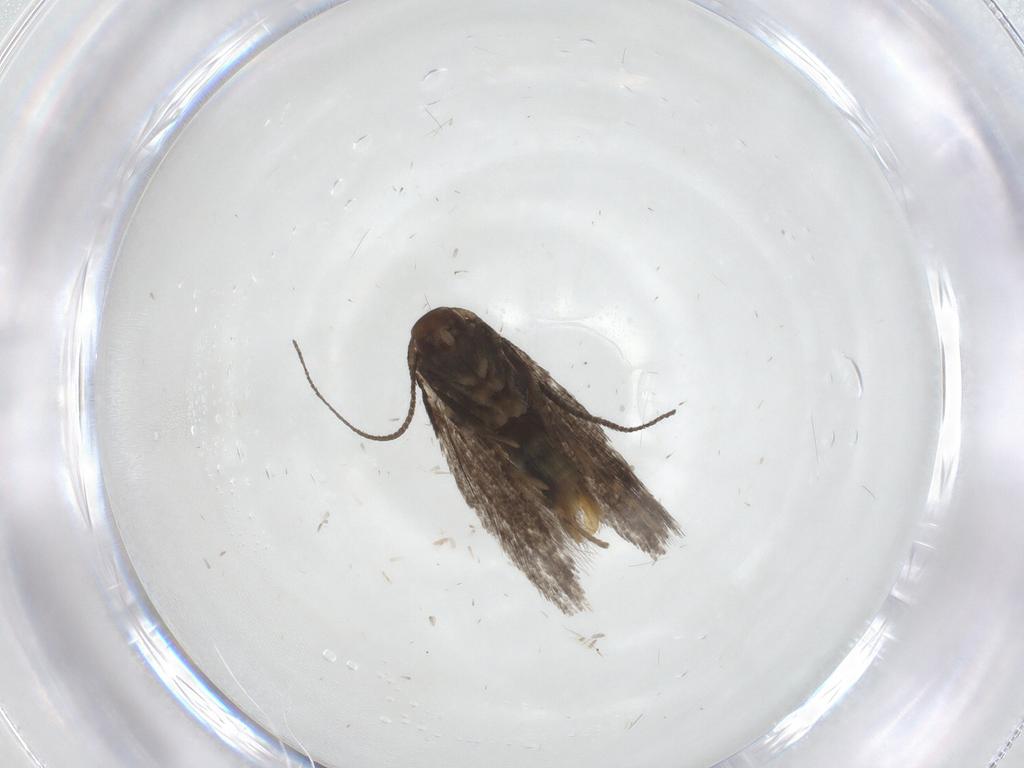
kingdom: Animalia
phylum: Arthropoda
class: Insecta
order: Lepidoptera
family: Elachistidae
